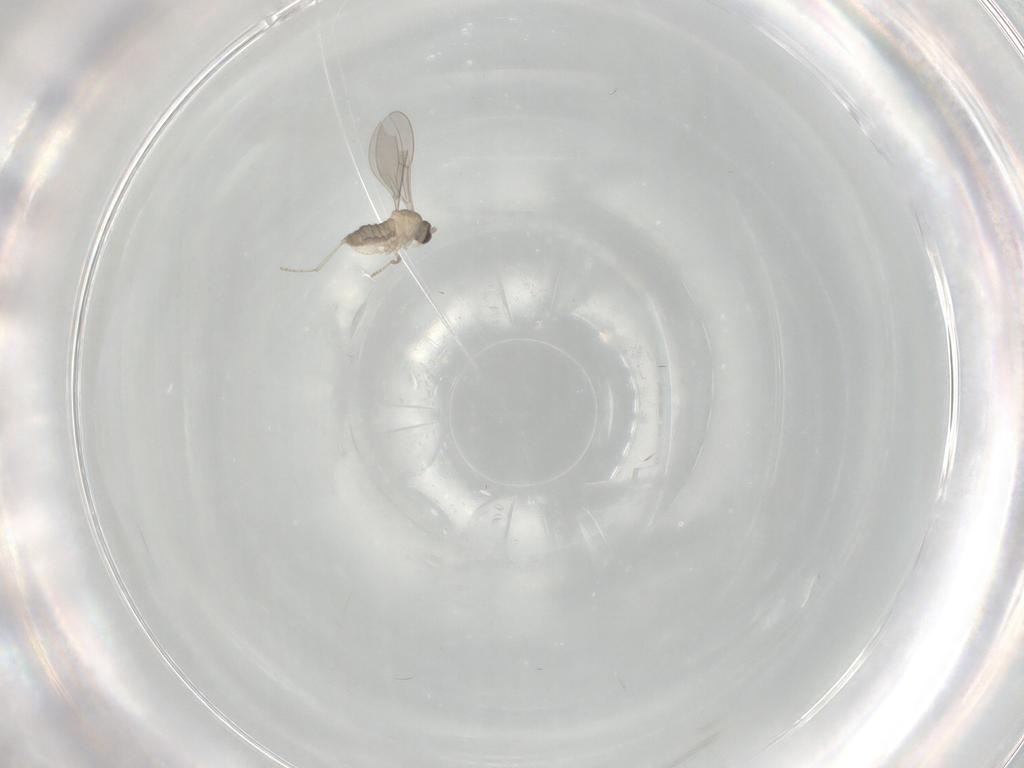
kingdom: Animalia
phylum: Arthropoda
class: Insecta
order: Diptera
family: Cecidomyiidae
